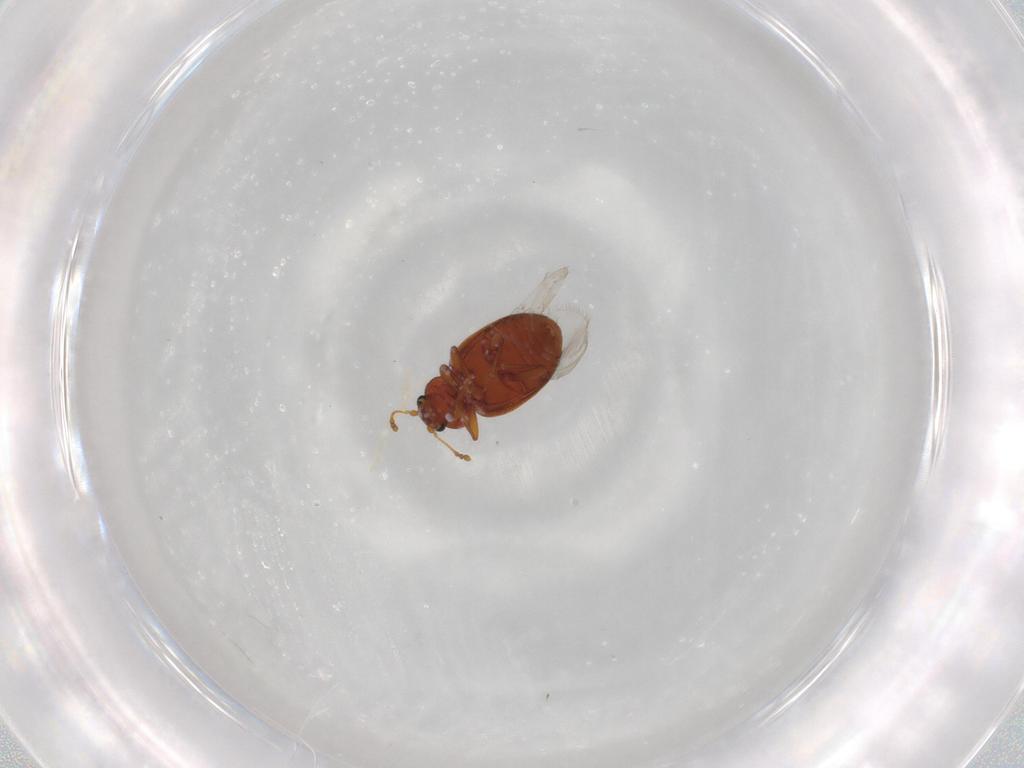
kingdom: Animalia
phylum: Arthropoda
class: Insecta
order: Coleoptera
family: Latridiidae
